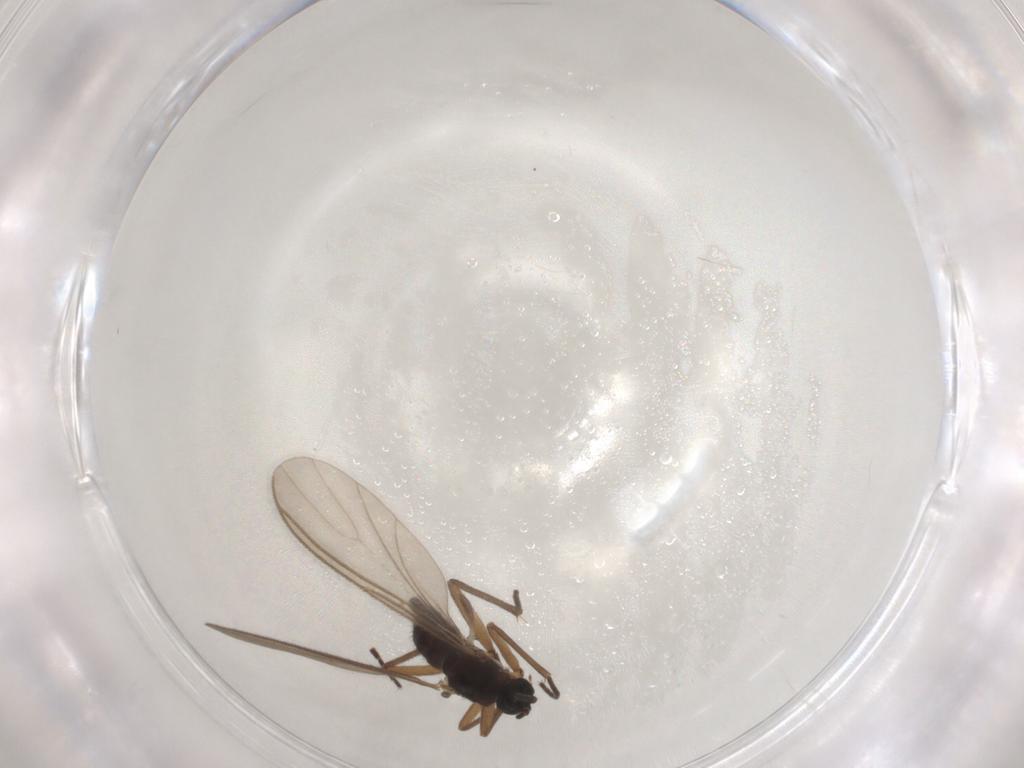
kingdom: Animalia
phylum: Arthropoda
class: Insecta
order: Diptera
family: Sciaridae
